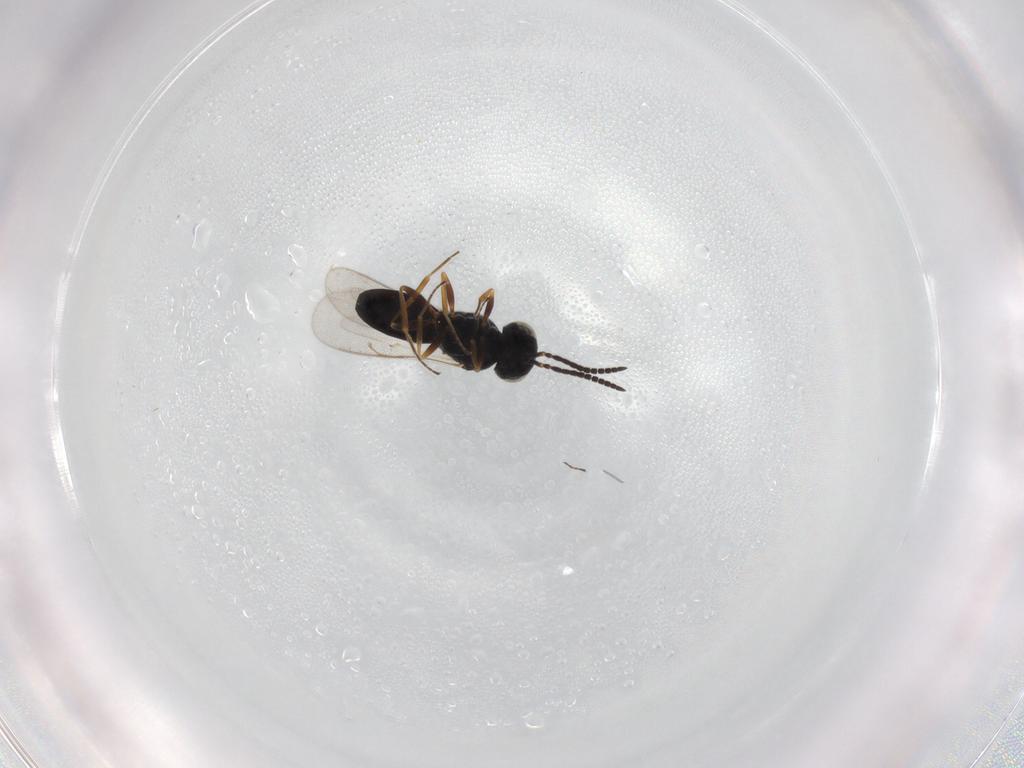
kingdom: Animalia
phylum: Arthropoda
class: Insecta
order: Hymenoptera
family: Scelionidae
